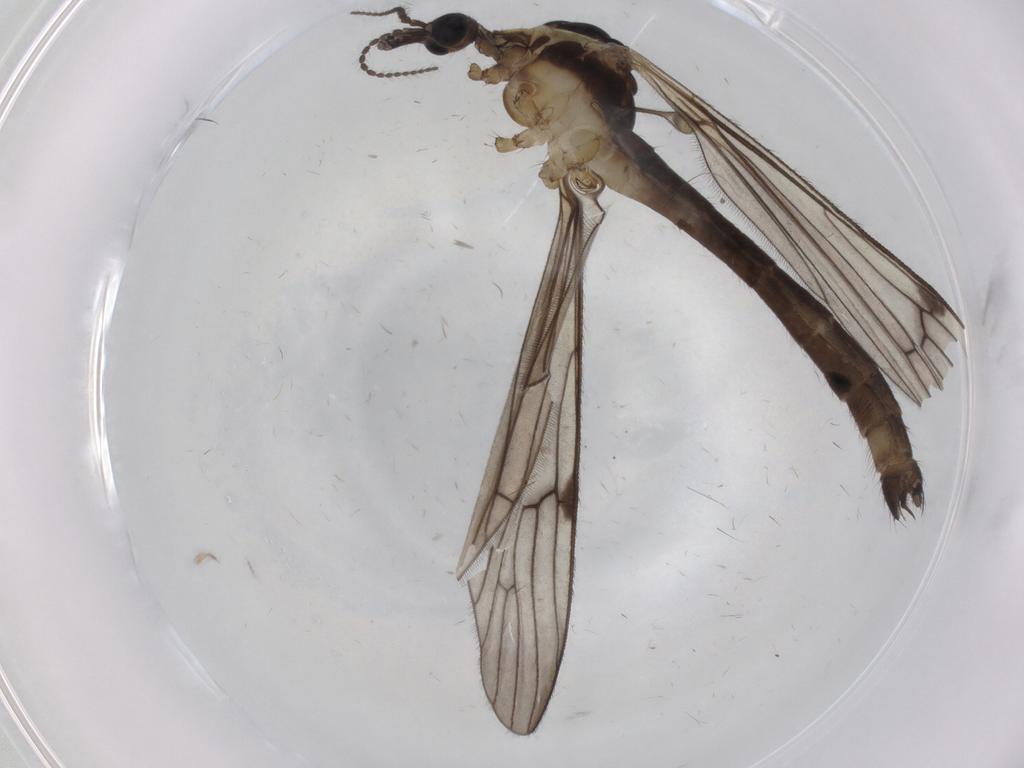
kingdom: Animalia
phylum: Arthropoda
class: Insecta
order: Diptera
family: Limoniidae
